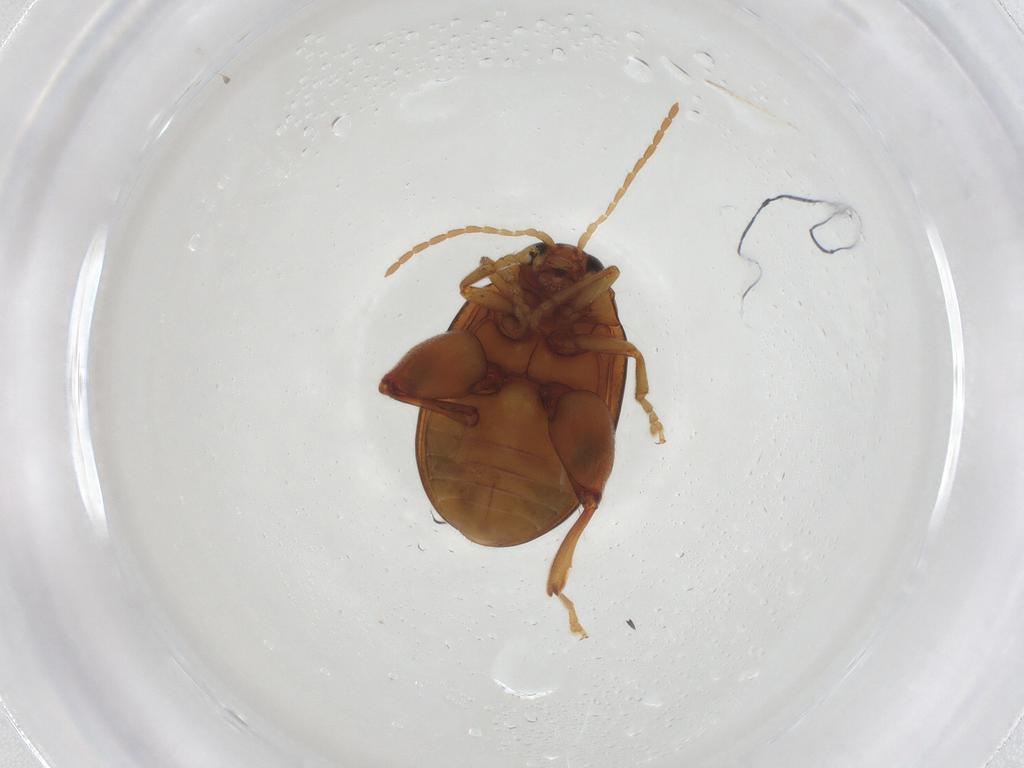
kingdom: Animalia
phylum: Arthropoda
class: Insecta
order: Coleoptera
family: Chrysomelidae
